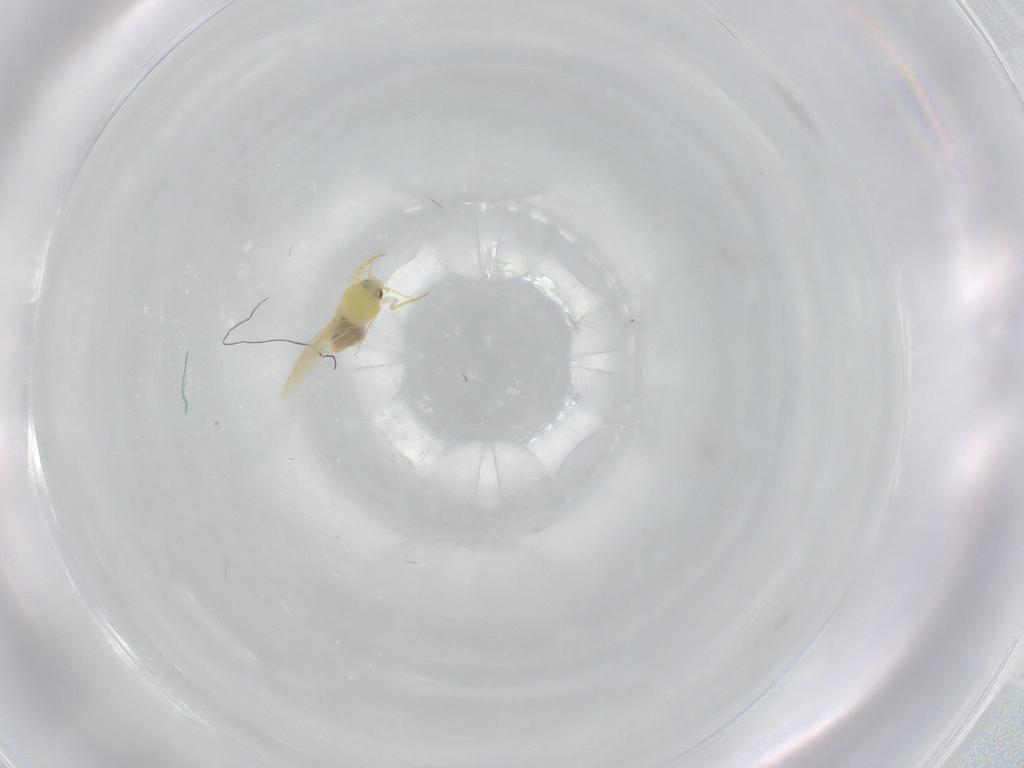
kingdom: Animalia
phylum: Arthropoda
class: Insecta
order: Hemiptera
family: Aleyrodidae
